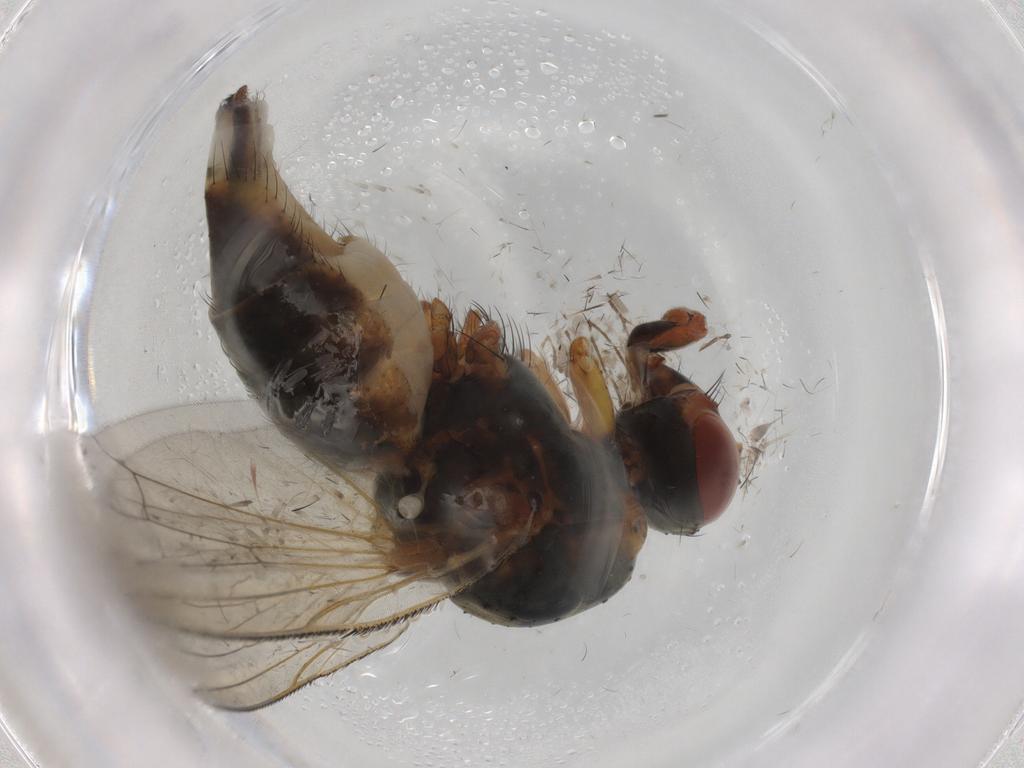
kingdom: Animalia
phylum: Arthropoda
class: Insecta
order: Diptera
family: Anthomyiidae
